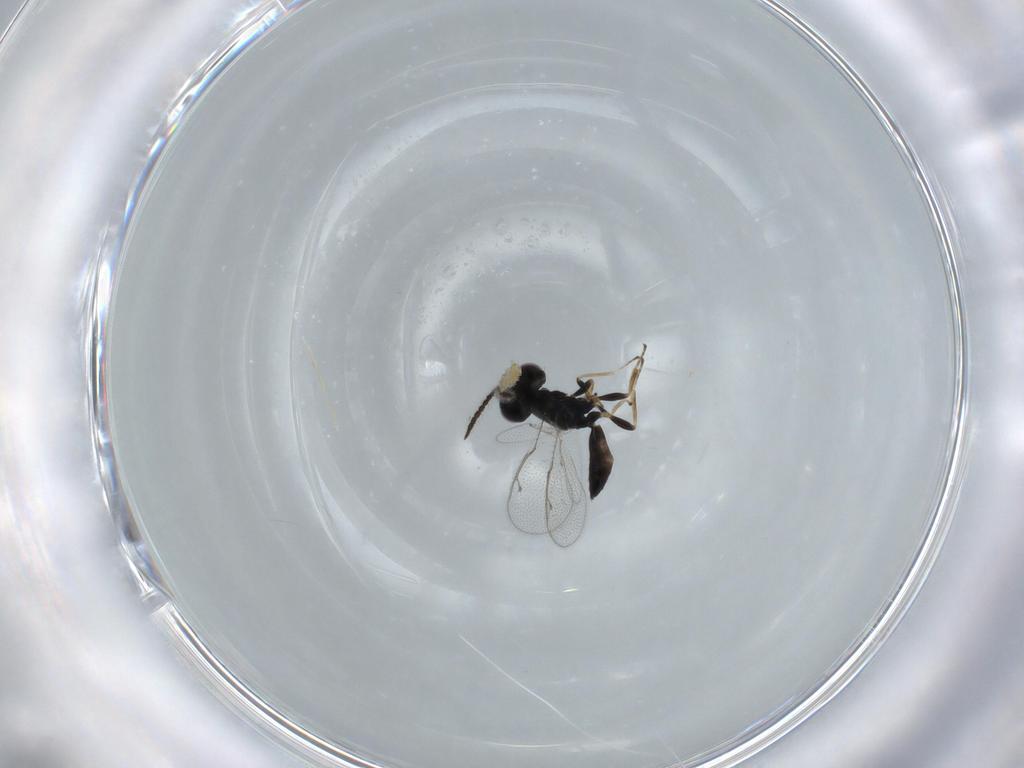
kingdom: Animalia
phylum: Arthropoda
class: Insecta
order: Hymenoptera
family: Pteromalidae
